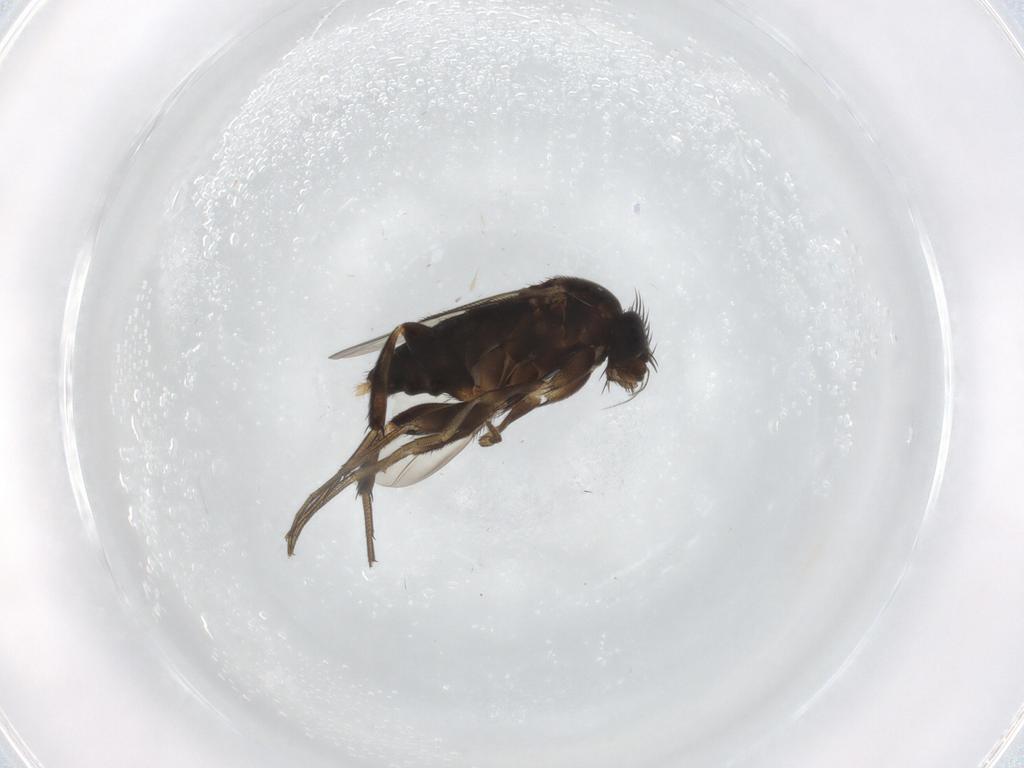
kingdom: Animalia
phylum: Arthropoda
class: Insecta
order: Diptera
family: Phoridae
